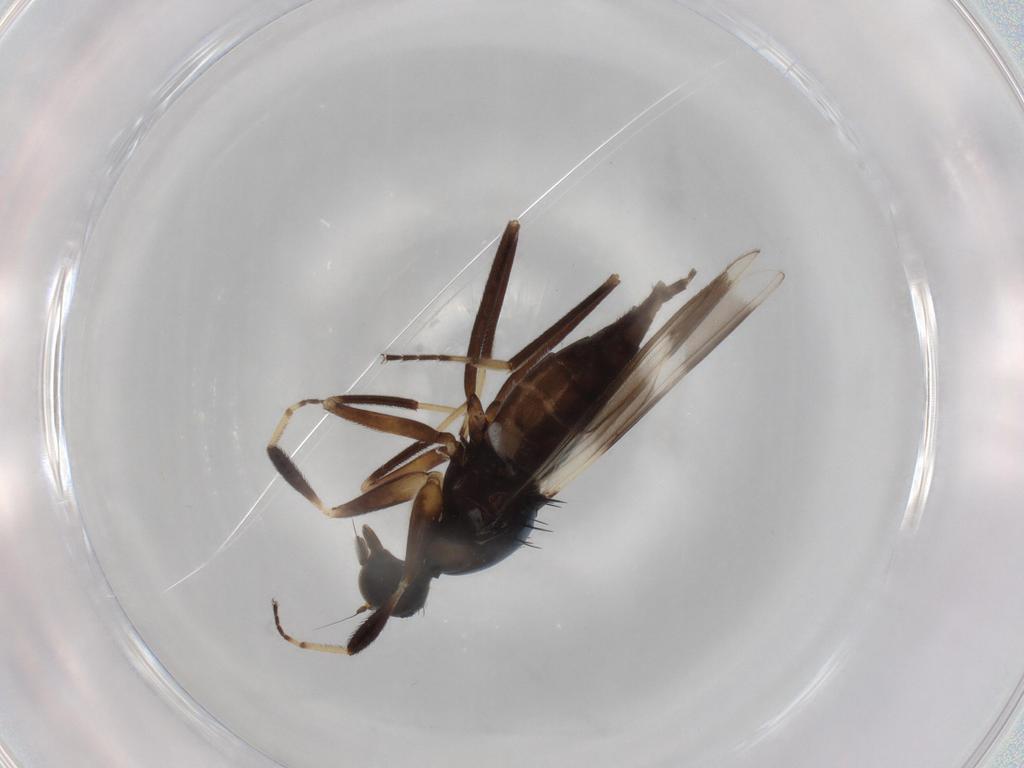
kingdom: Animalia
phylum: Arthropoda
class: Insecta
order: Diptera
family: Hybotidae
